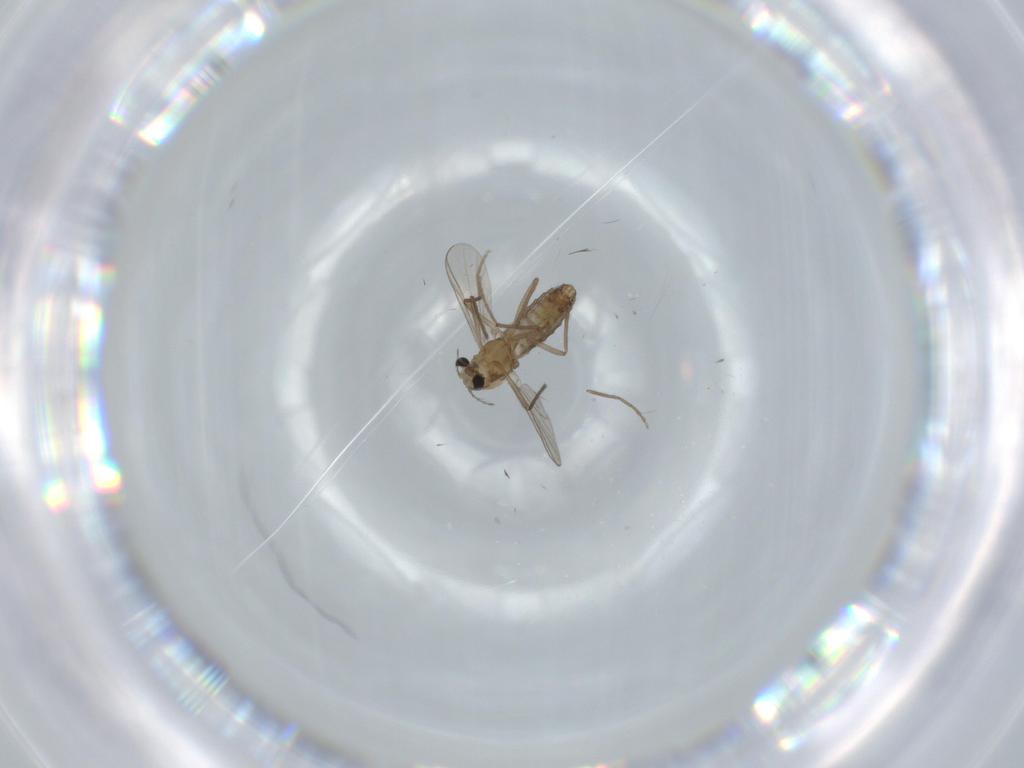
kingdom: Animalia
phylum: Arthropoda
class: Insecta
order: Diptera
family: Chironomidae
